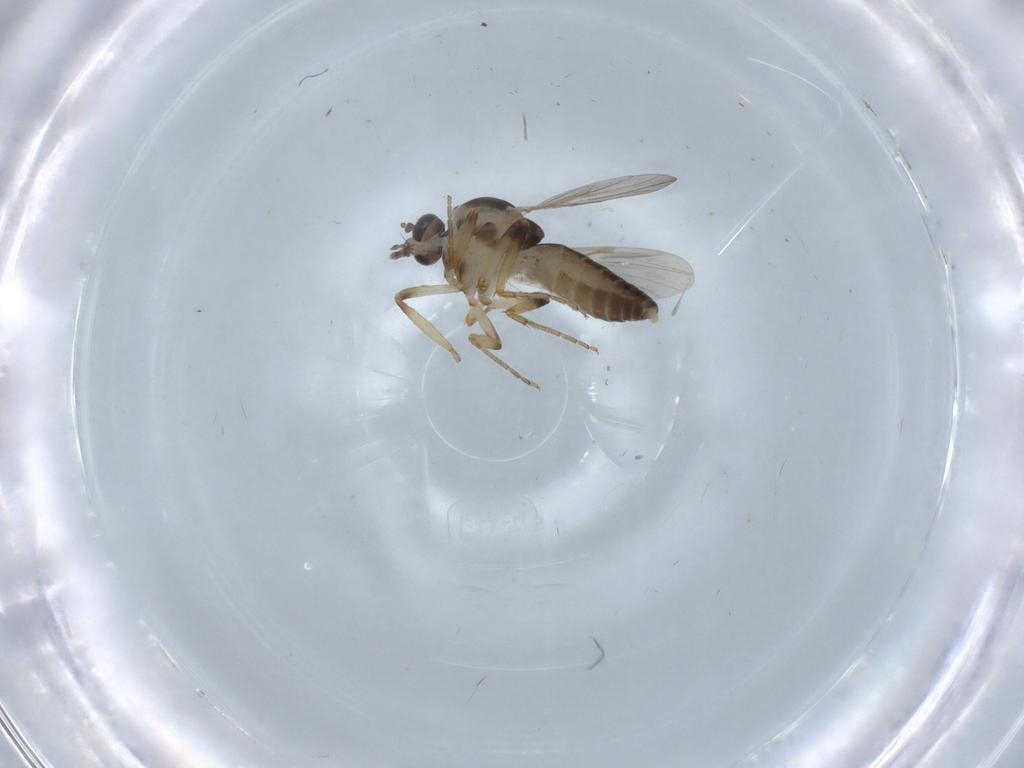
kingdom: Animalia
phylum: Arthropoda
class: Insecta
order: Diptera
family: Ceratopogonidae
